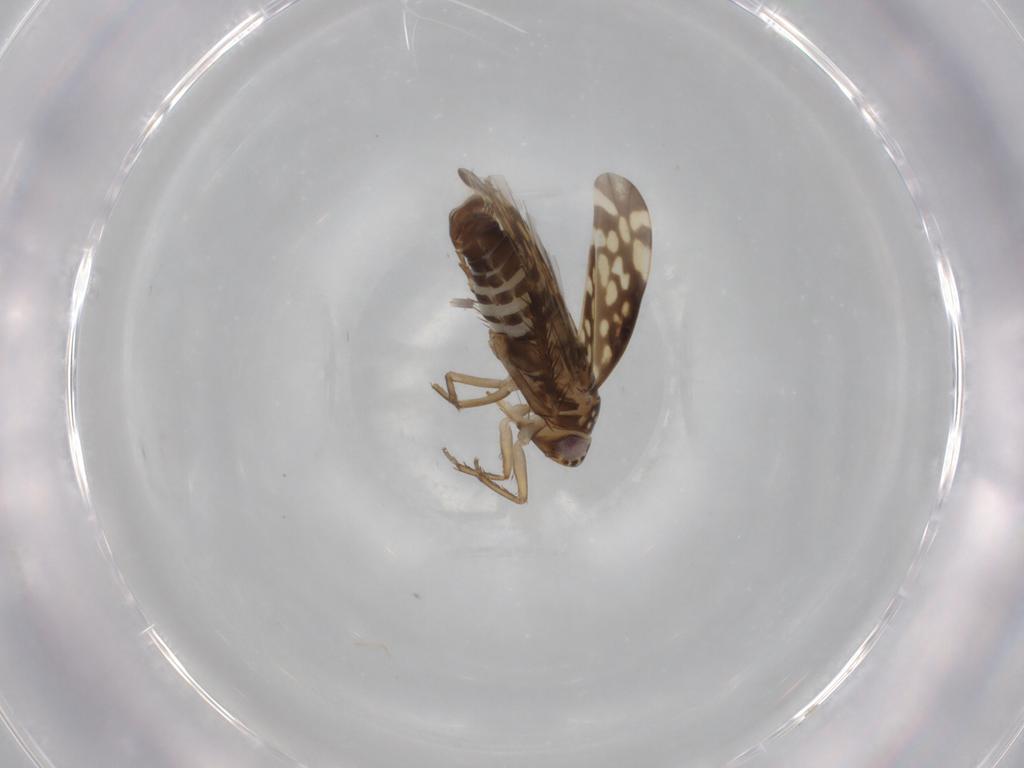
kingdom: Animalia
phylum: Arthropoda
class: Insecta
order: Hemiptera
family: Cicadellidae
